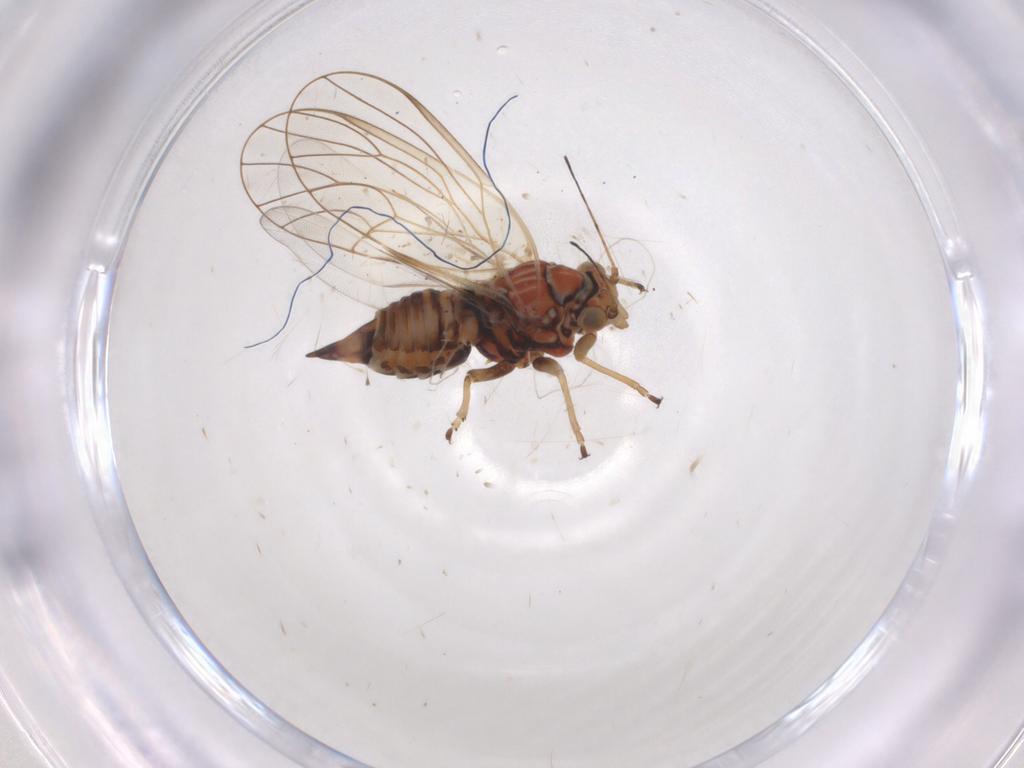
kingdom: Animalia
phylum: Arthropoda
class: Insecta
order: Hemiptera
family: Psyllidae
